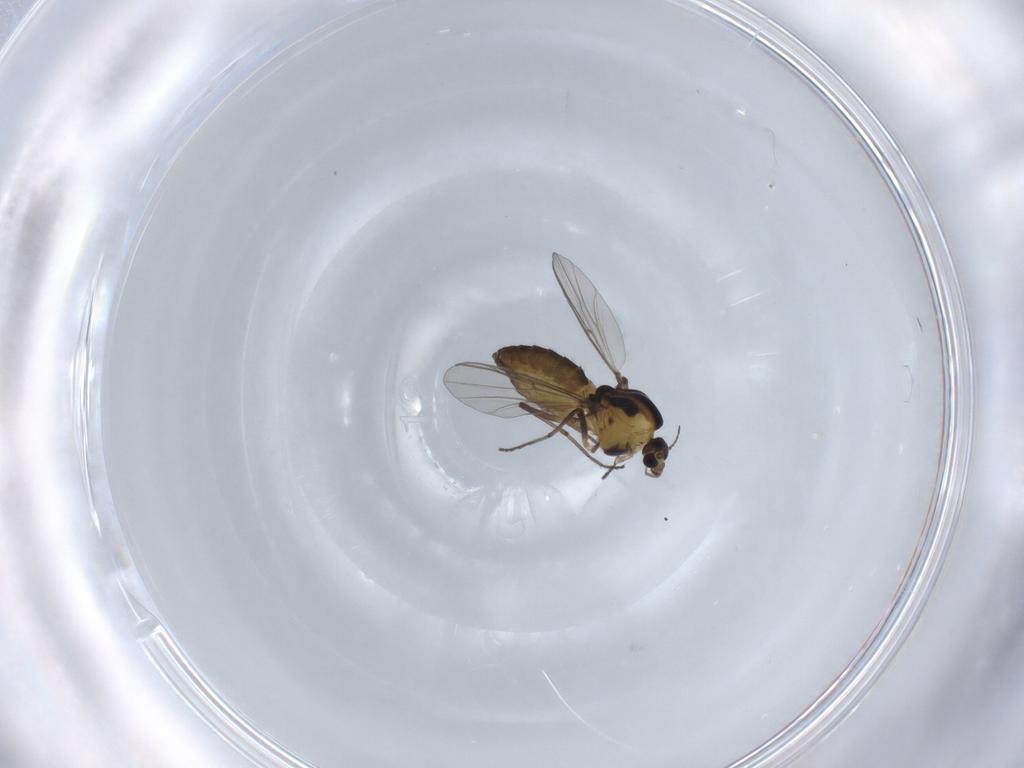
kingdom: Animalia
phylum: Arthropoda
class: Insecta
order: Diptera
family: Chironomidae
